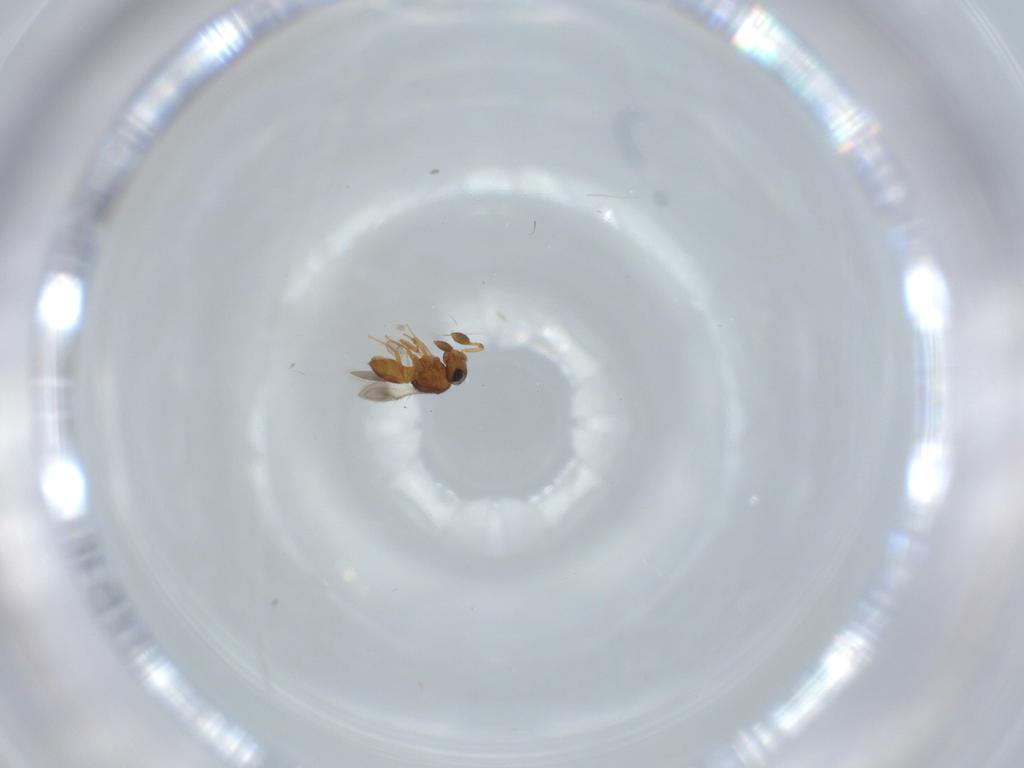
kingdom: Animalia
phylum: Arthropoda
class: Insecta
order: Hymenoptera
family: Scelionidae
